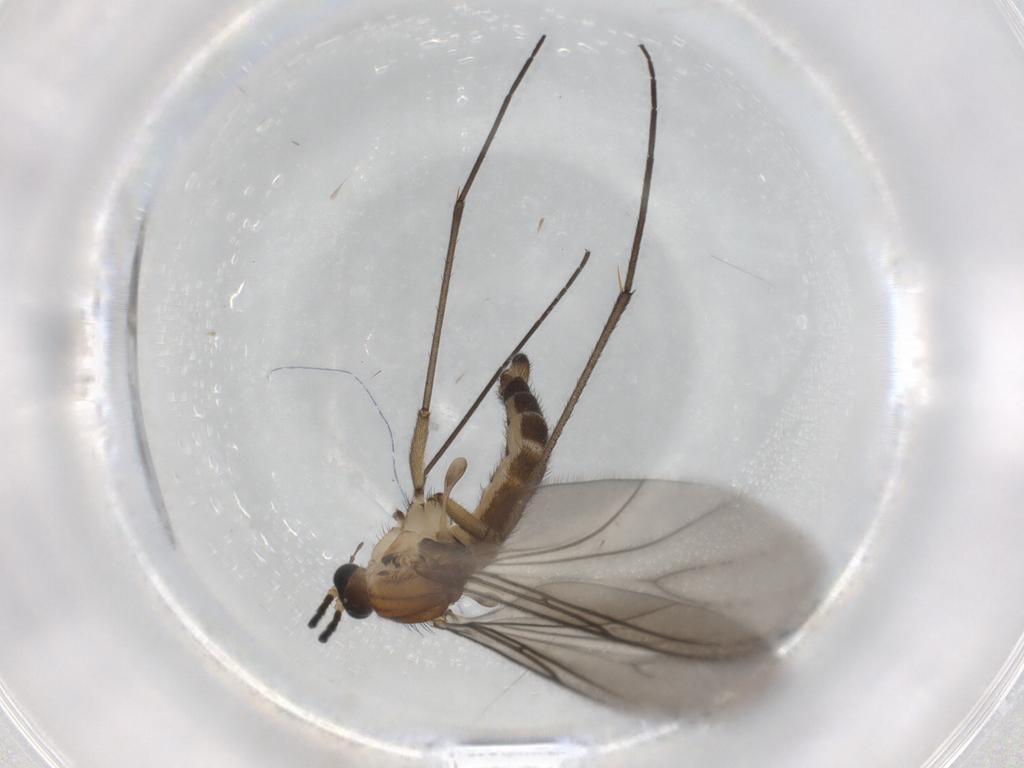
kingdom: Animalia
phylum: Arthropoda
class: Insecta
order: Diptera
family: Sciaridae
